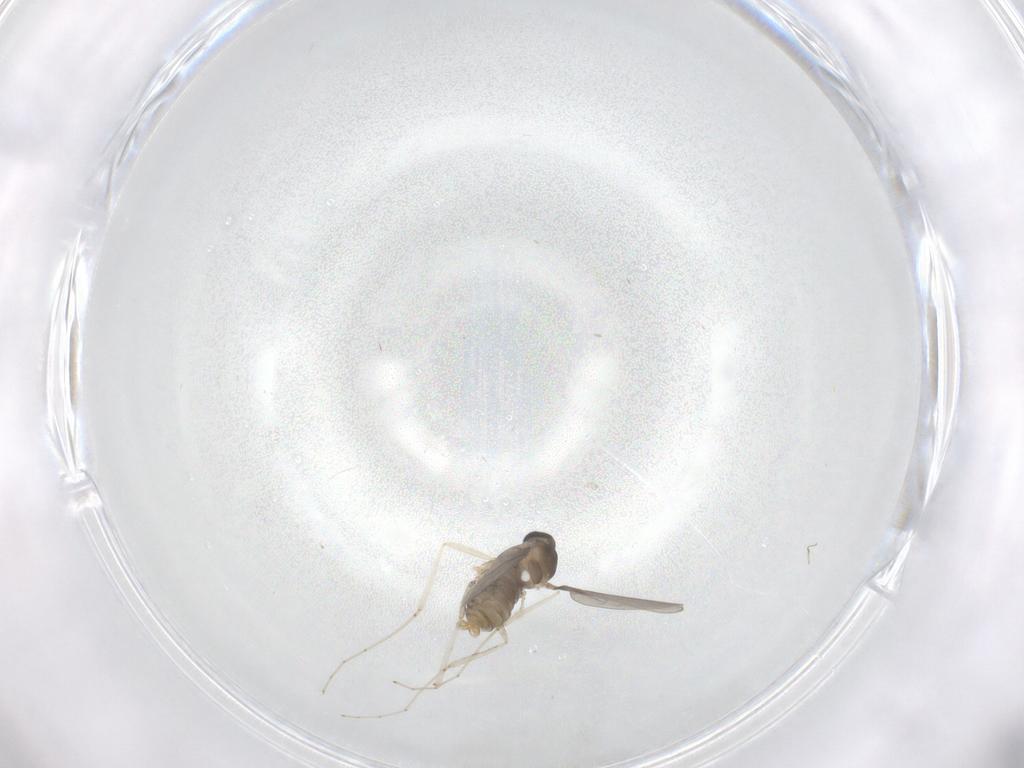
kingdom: Animalia
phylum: Arthropoda
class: Insecta
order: Diptera
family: Cecidomyiidae
